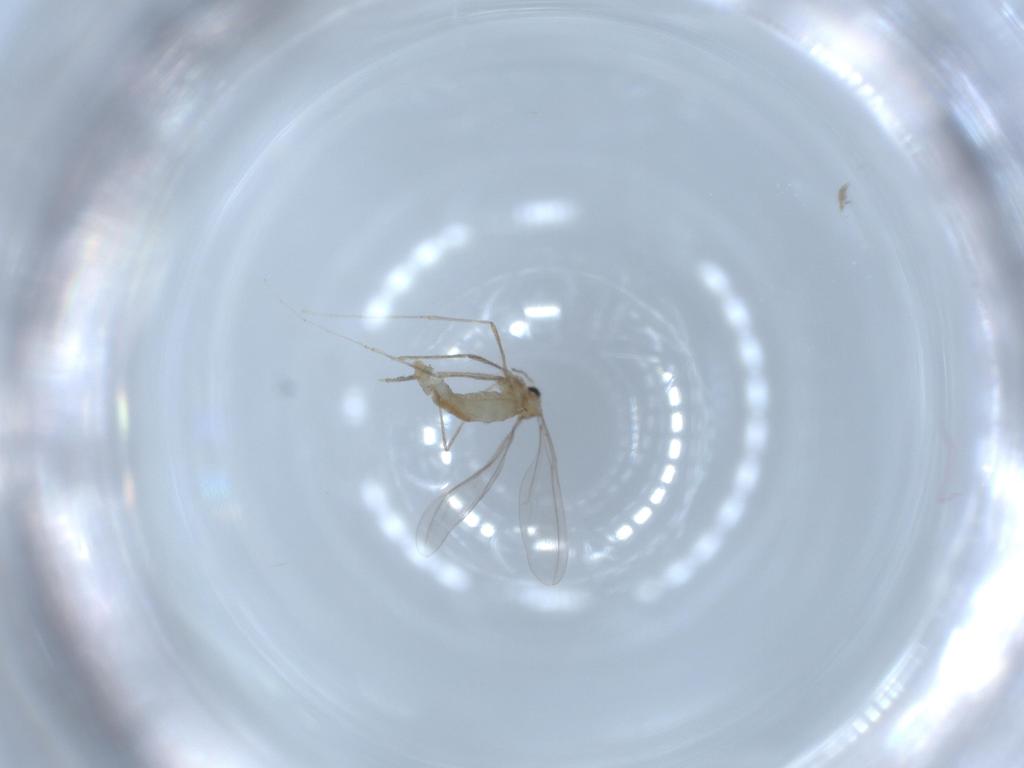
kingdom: Animalia
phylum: Arthropoda
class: Insecta
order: Diptera
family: Cecidomyiidae
